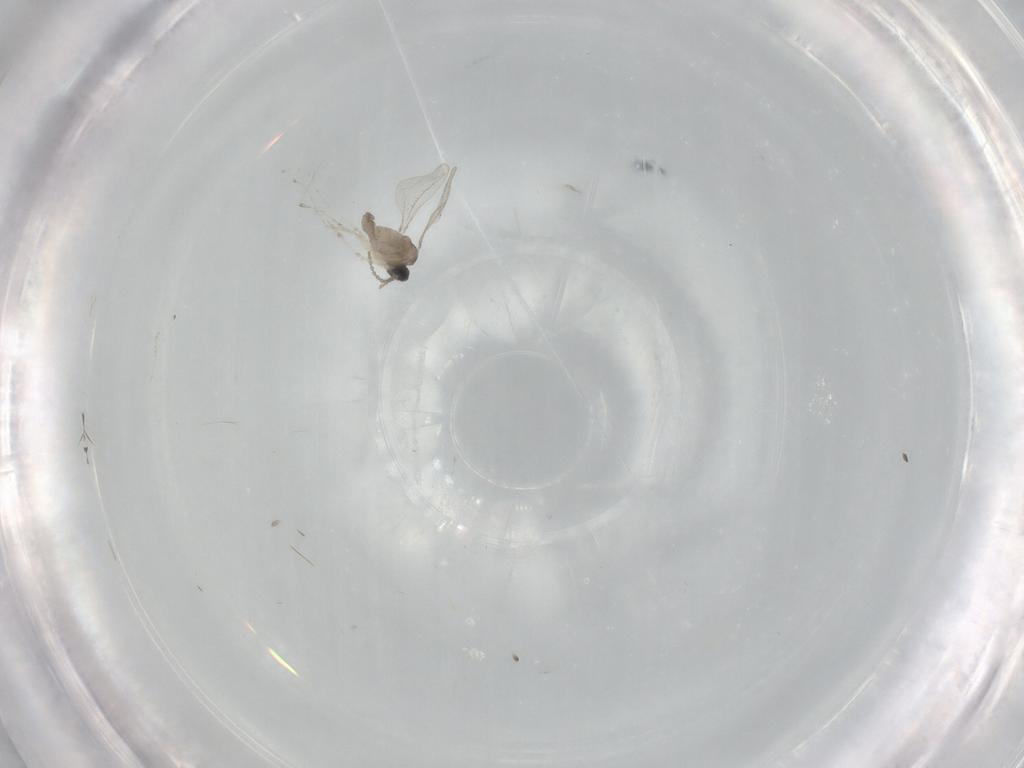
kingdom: Animalia
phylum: Arthropoda
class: Insecta
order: Diptera
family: Cecidomyiidae
